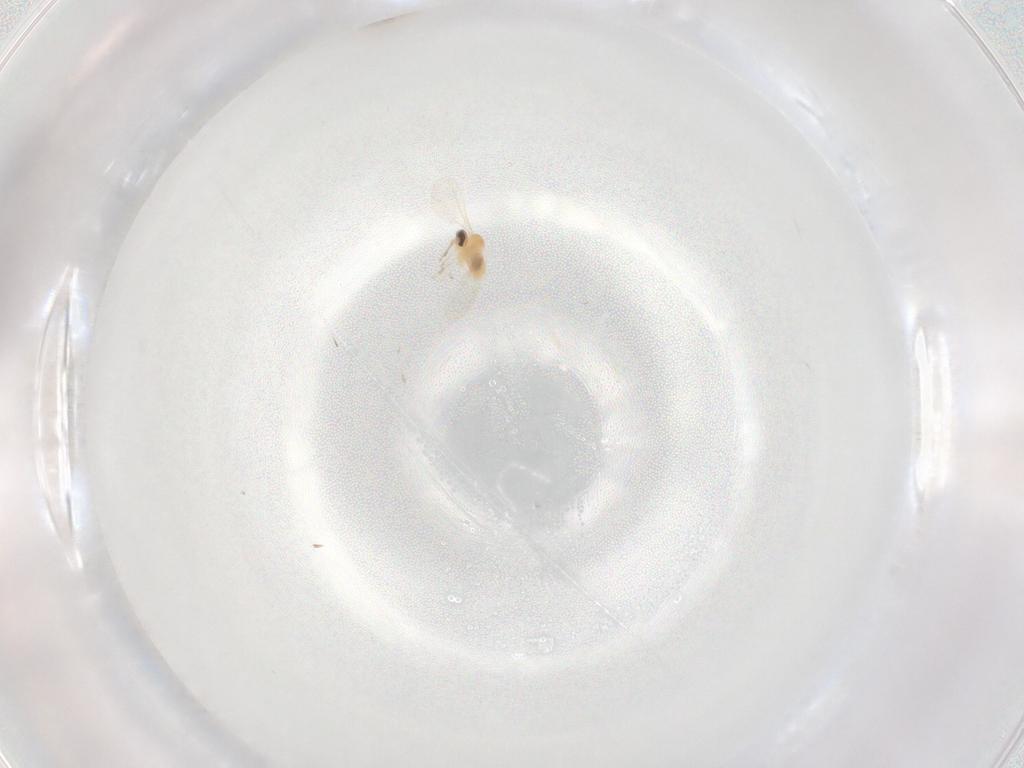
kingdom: Animalia
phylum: Arthropoda
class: Insecta
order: Diptera
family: Cecidomyiidae
